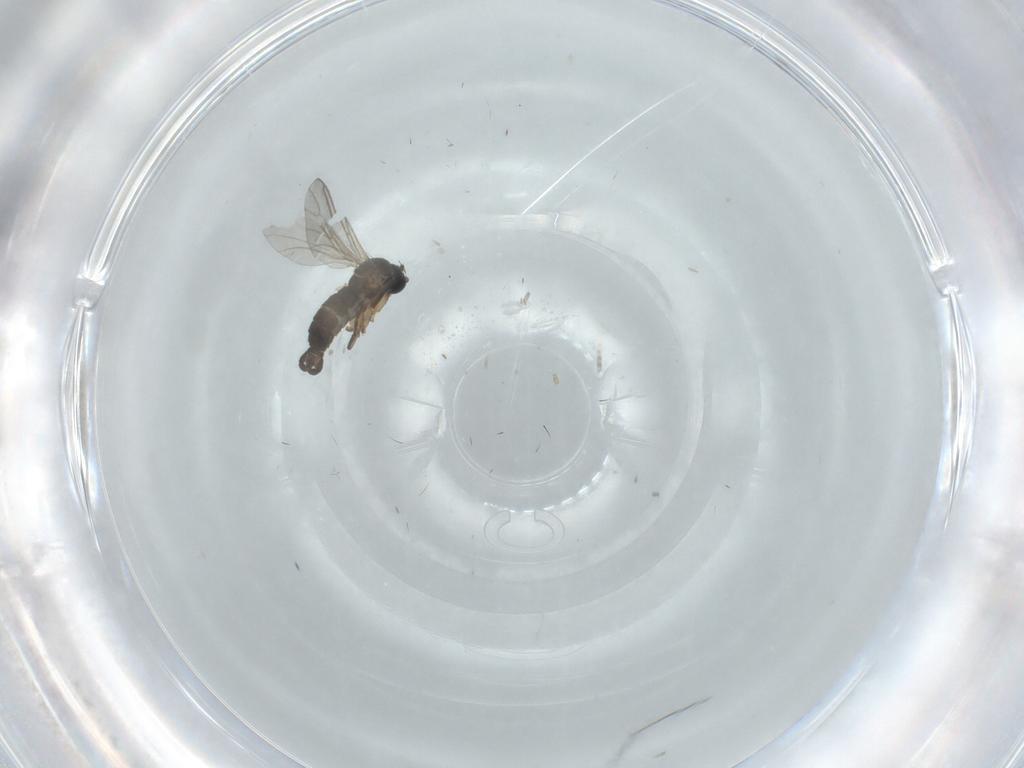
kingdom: Animalia
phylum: Arthropoda
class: Insecta
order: Diptera
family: Sciaridae
